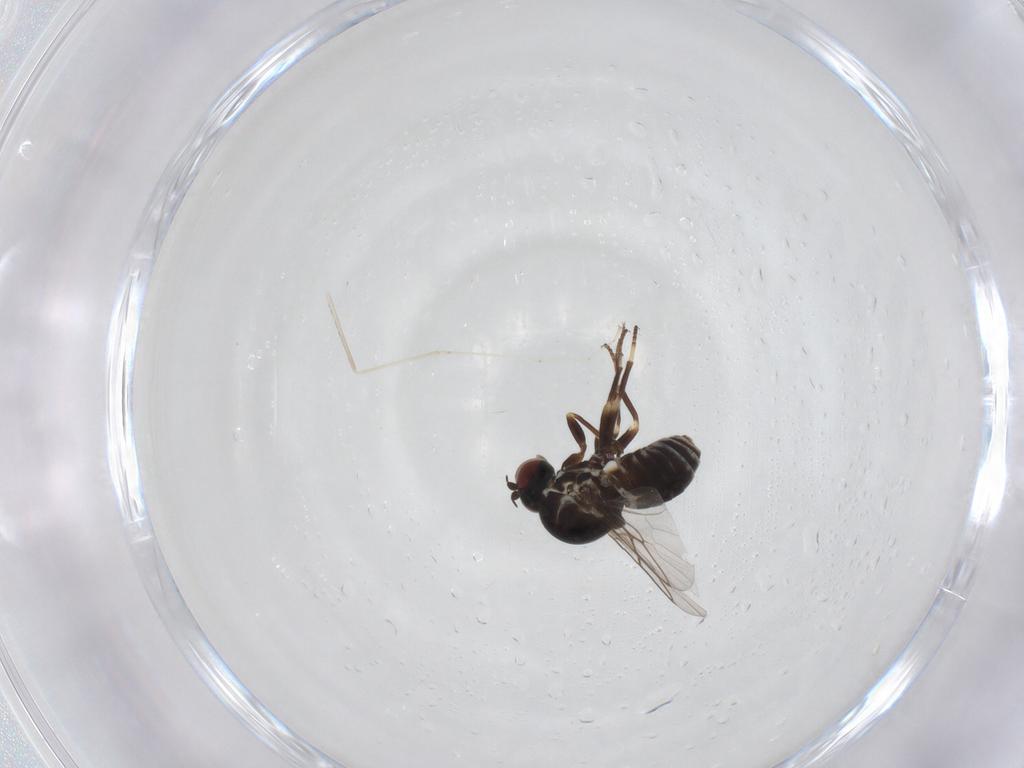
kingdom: Animalia
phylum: Arthropoda
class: Insecta
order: Diptera
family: Mythicomyiidae
